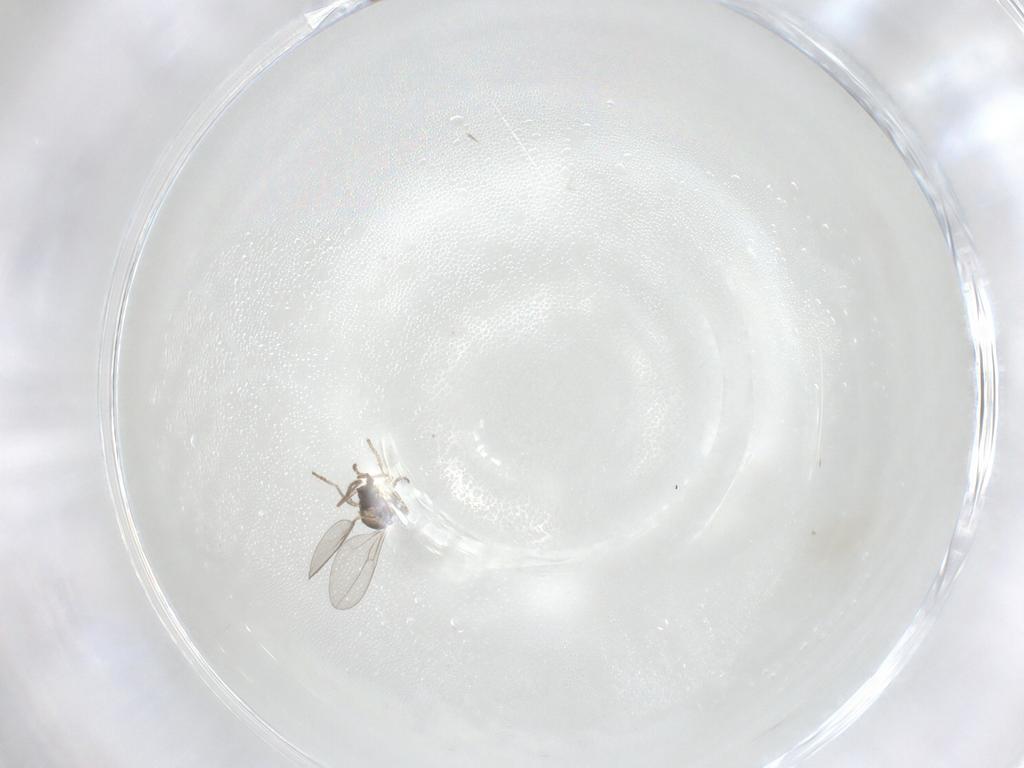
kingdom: Animalia
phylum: Arthropoda
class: Insecta
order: Diptera
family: Cecidomyiidae
